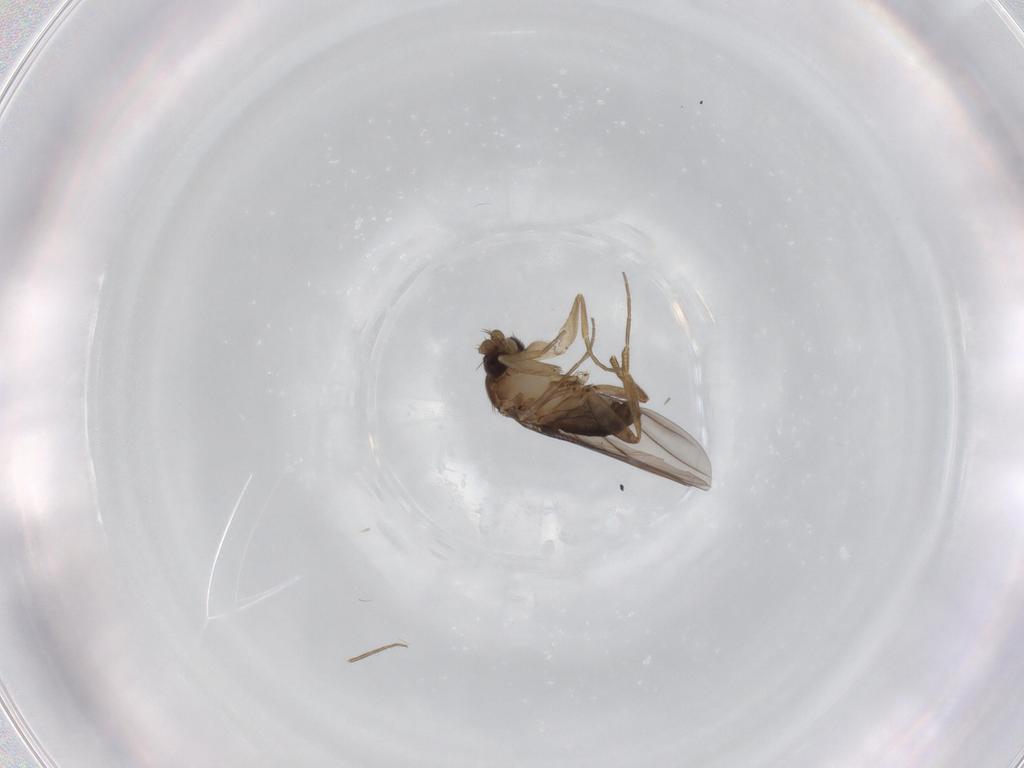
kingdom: Animalia
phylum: Arthropoda
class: Insecta
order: Diptera
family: Phoridae
